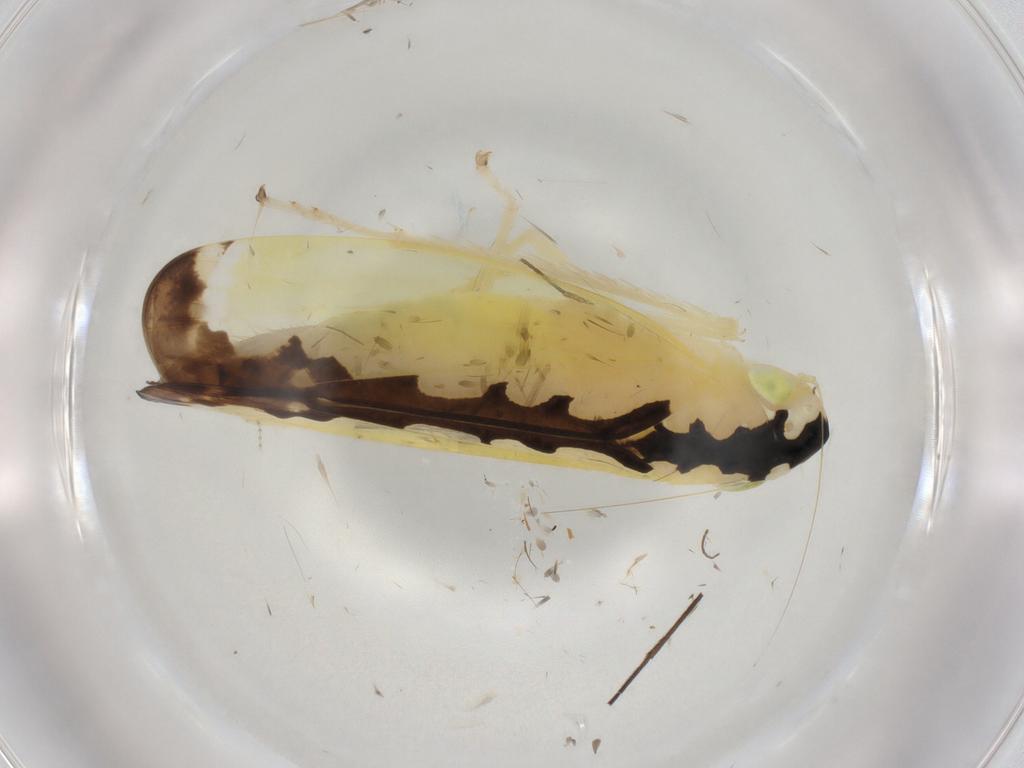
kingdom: Animalia
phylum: Arthropoda
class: Insecta
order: Hemiptera
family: Cicadellidae
